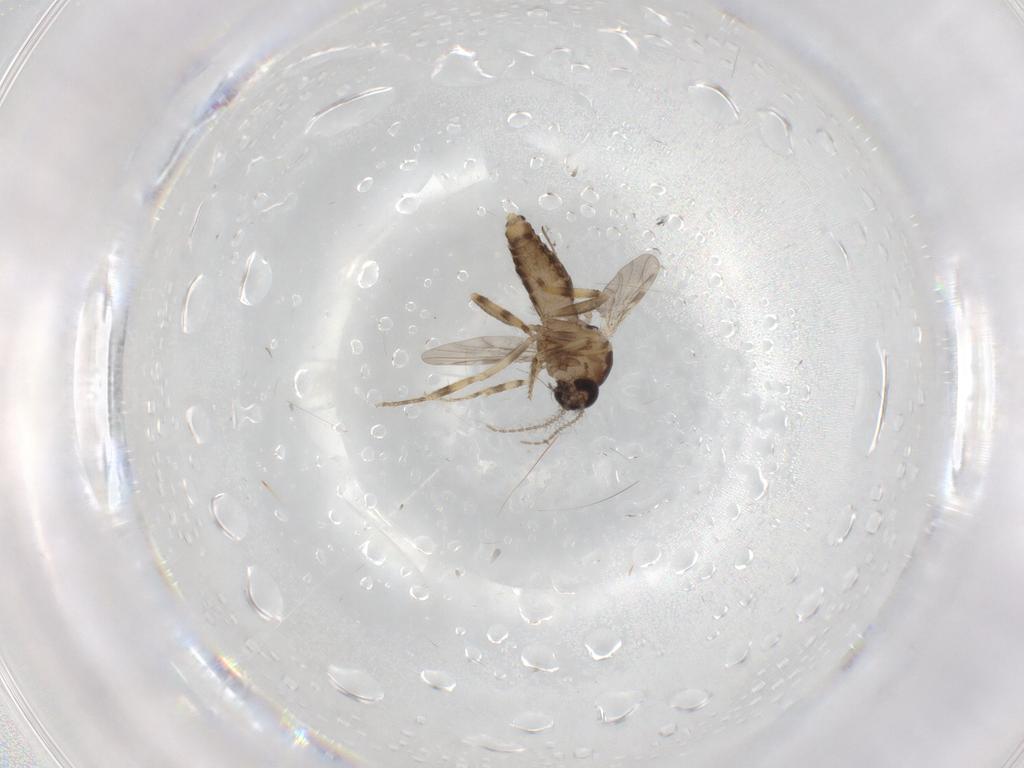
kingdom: Animalia
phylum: Arthropoda
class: Insecta
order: Diptera
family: Ceratopogonidae
